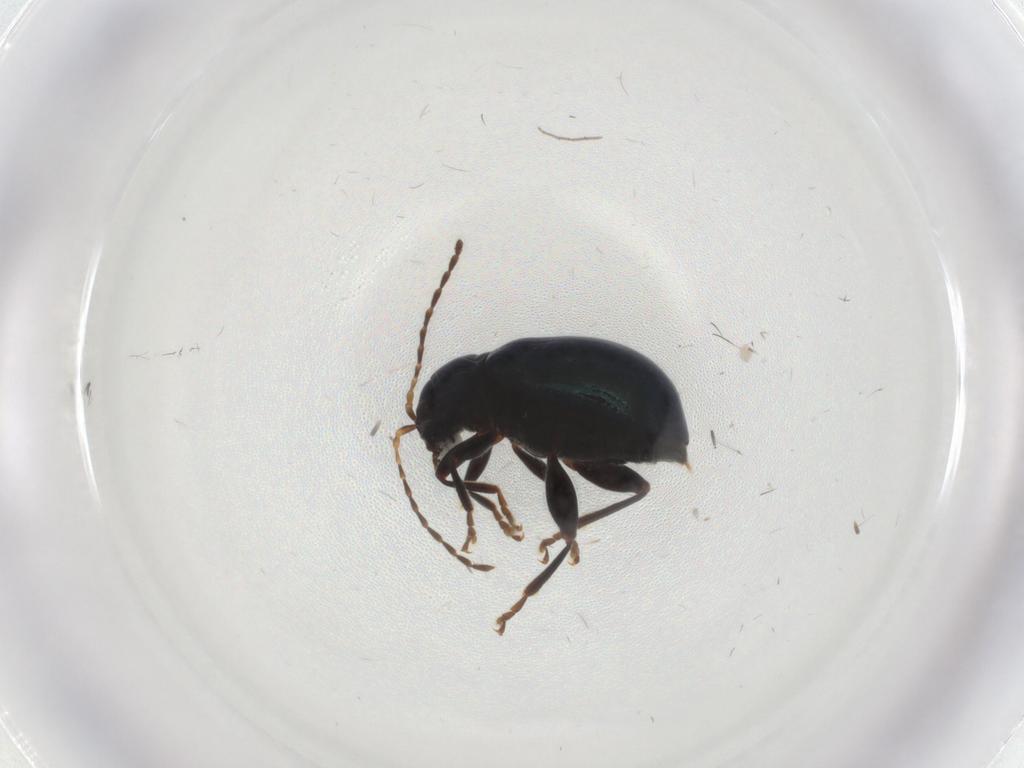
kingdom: Animalia
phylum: Arthropoda
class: Insecta
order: Coleoptera
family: Chrysomelidae
